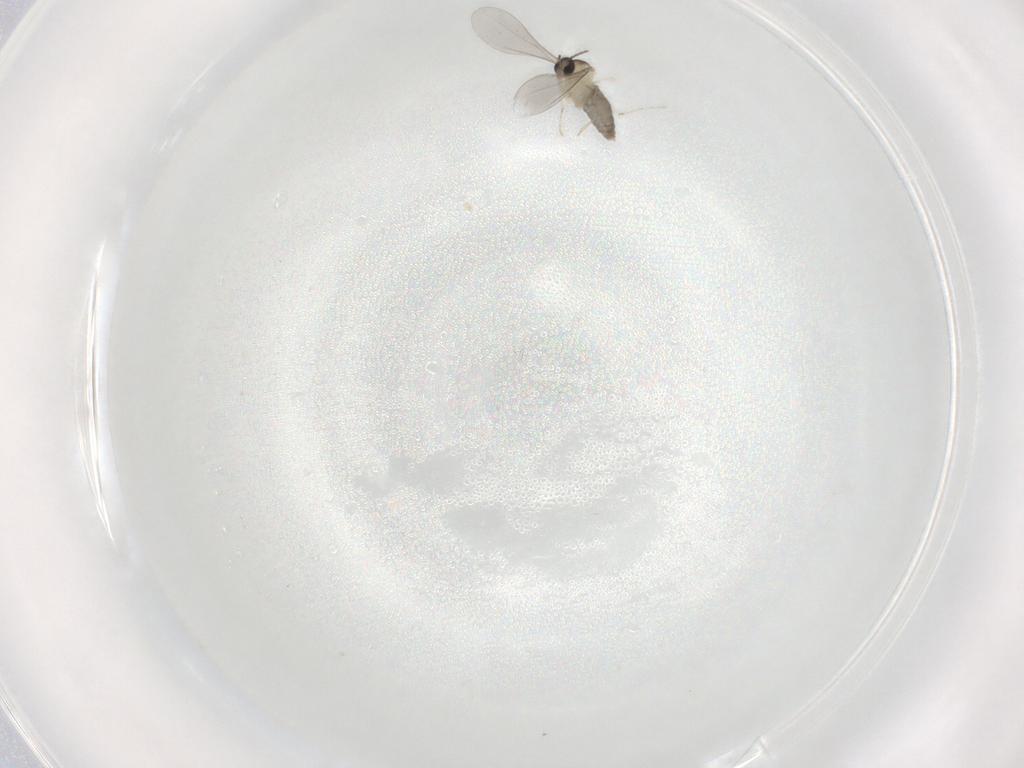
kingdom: Animalia
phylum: Arthropoda
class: Insecta
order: Diptera
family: Cecidomyiidae
